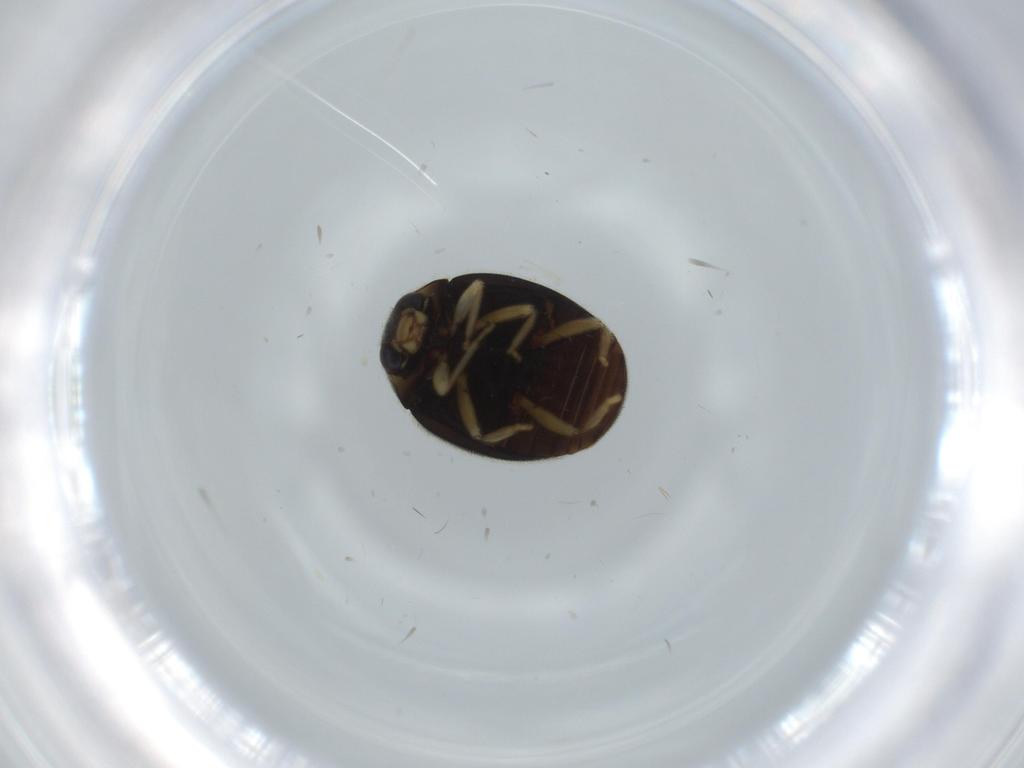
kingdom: Animalia
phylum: Arthropoda
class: Insecta
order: Coleoptera
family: Coccinellidae
